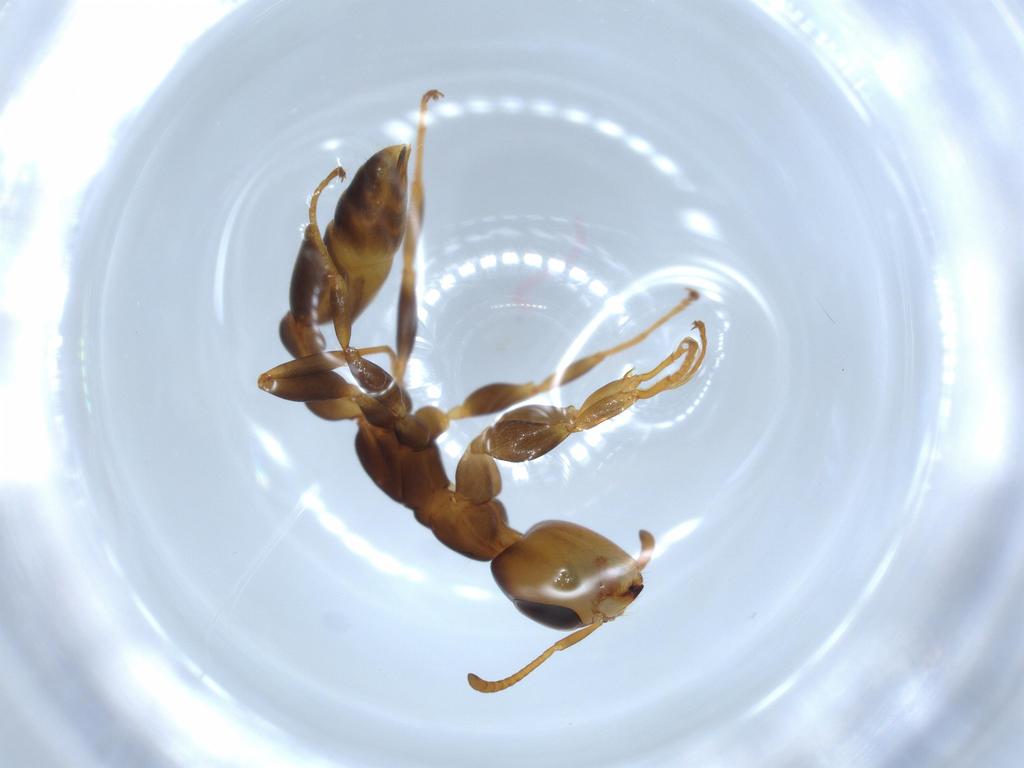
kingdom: Animalia
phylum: Arthropoda
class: Insecta
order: Hymenoptera
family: Formicidae
